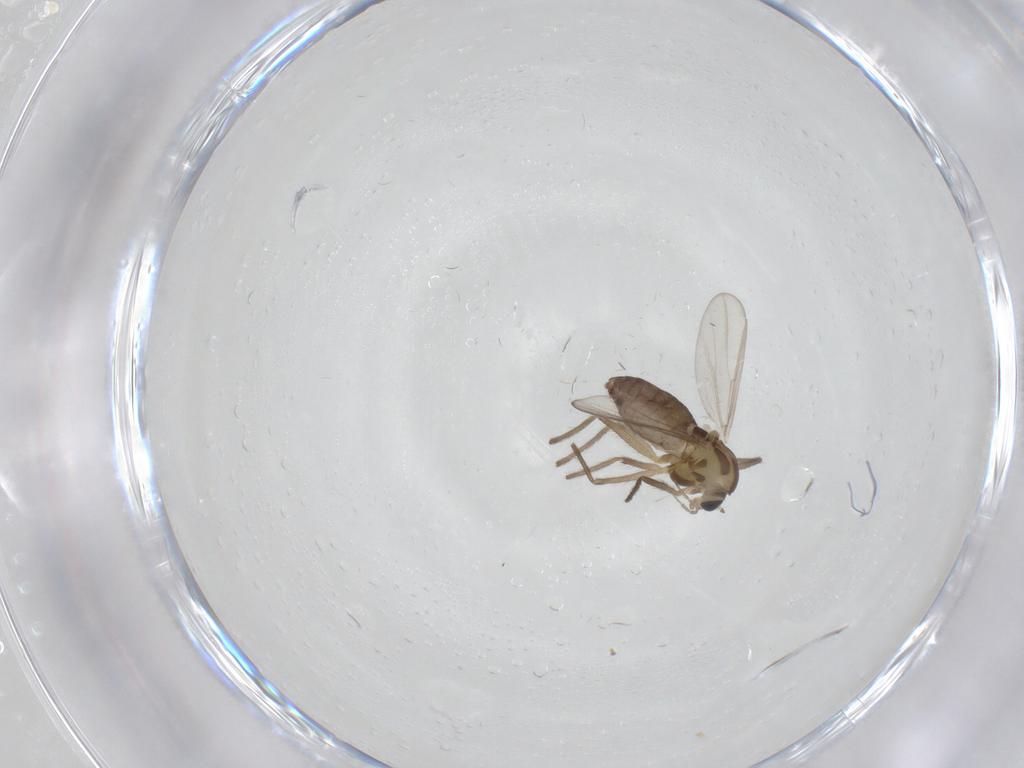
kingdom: Animalia
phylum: Arthropoda
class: Insecta
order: Diptera
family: Chironomidae
